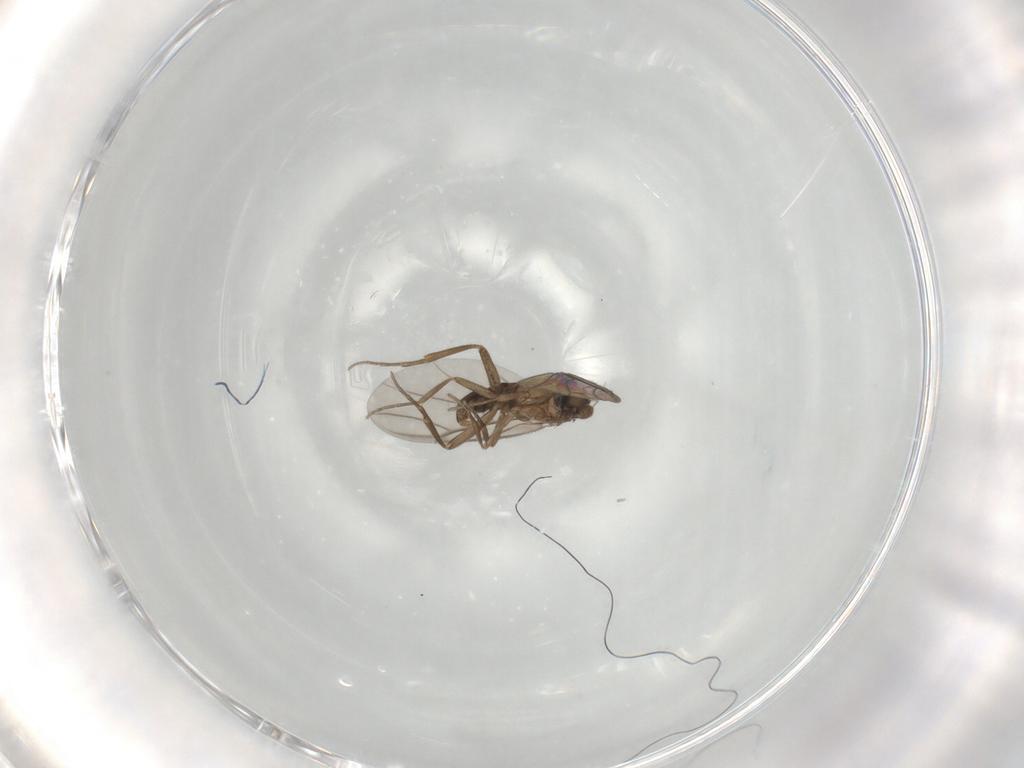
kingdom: Animalia
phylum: Arthropoda
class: Insecta
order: Diptera
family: Phoridae
